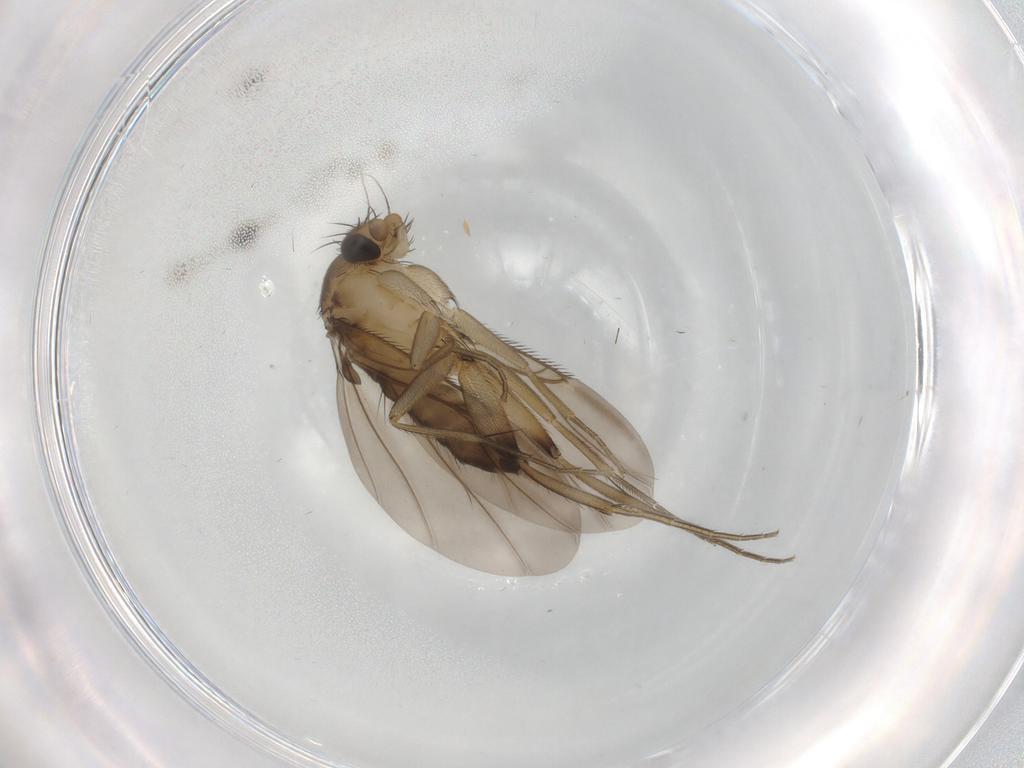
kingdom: Animalia
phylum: Arthropoda
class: Insecta
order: Diptera
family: Phoridae
